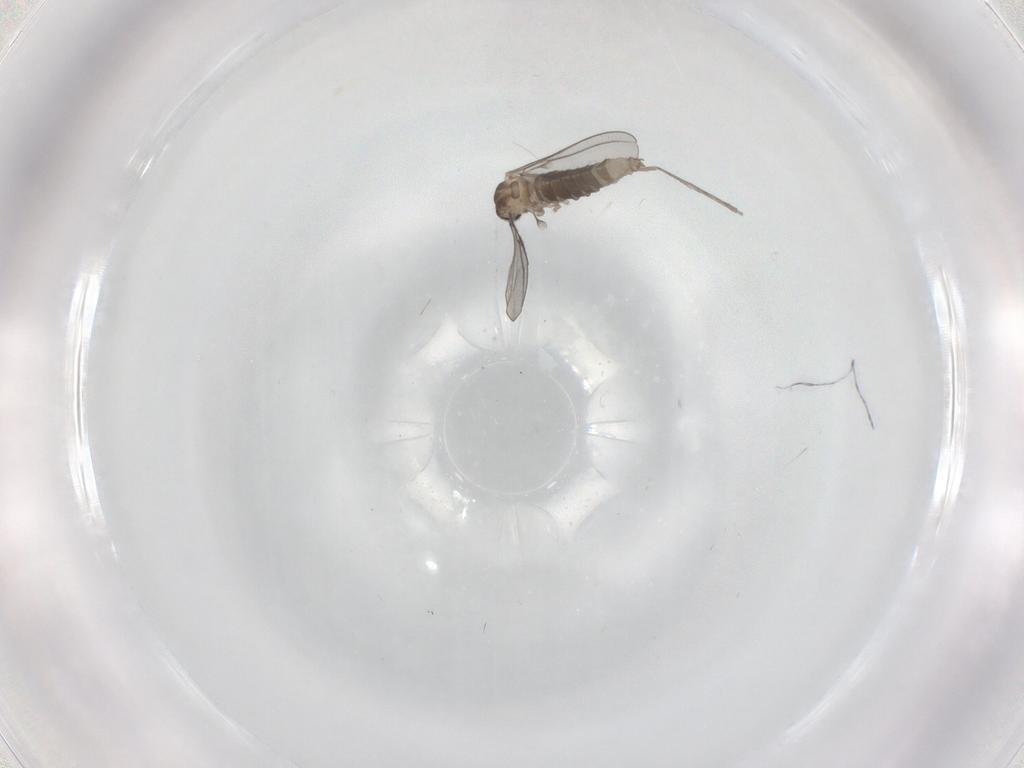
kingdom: Animalia
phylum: Arthropoda
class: Insecta
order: Diptera
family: Cecidomyiidae
